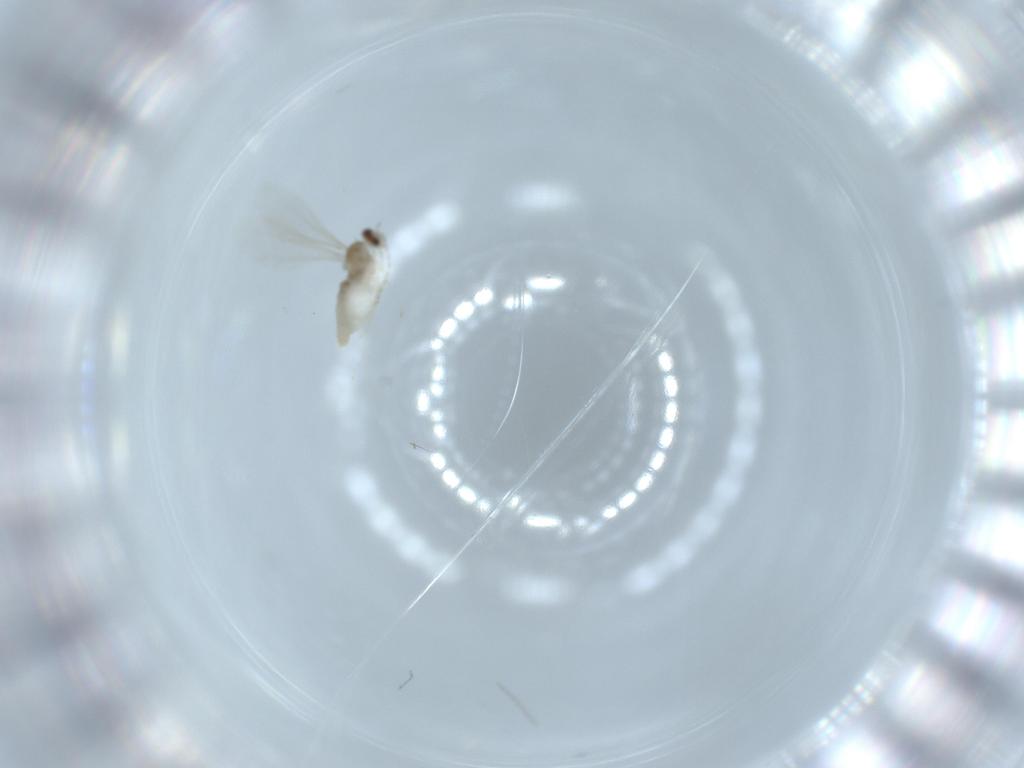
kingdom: Animalia
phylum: Arthropoda
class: Insecta
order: Diptera
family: Cecidomyiidae
